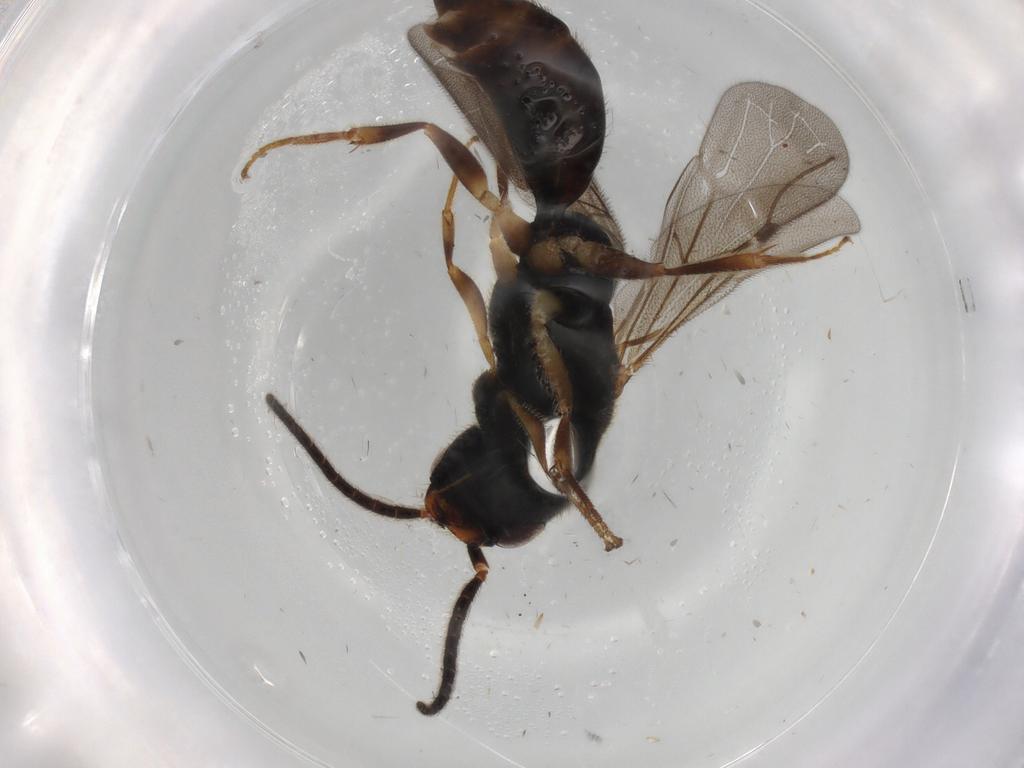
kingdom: Animalia
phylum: Arthropoda
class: Insecta
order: Hymenoptera
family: Bethylidae
